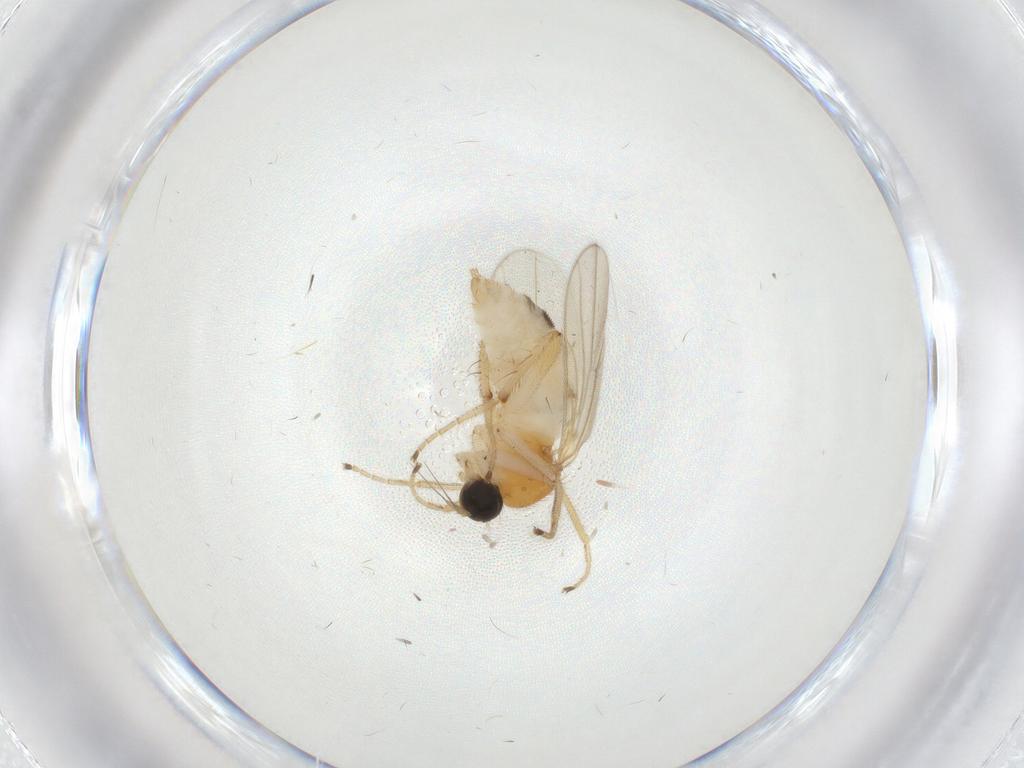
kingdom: Animalia
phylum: Arthropoda
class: Insecta
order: Diptera
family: Hybotidae
